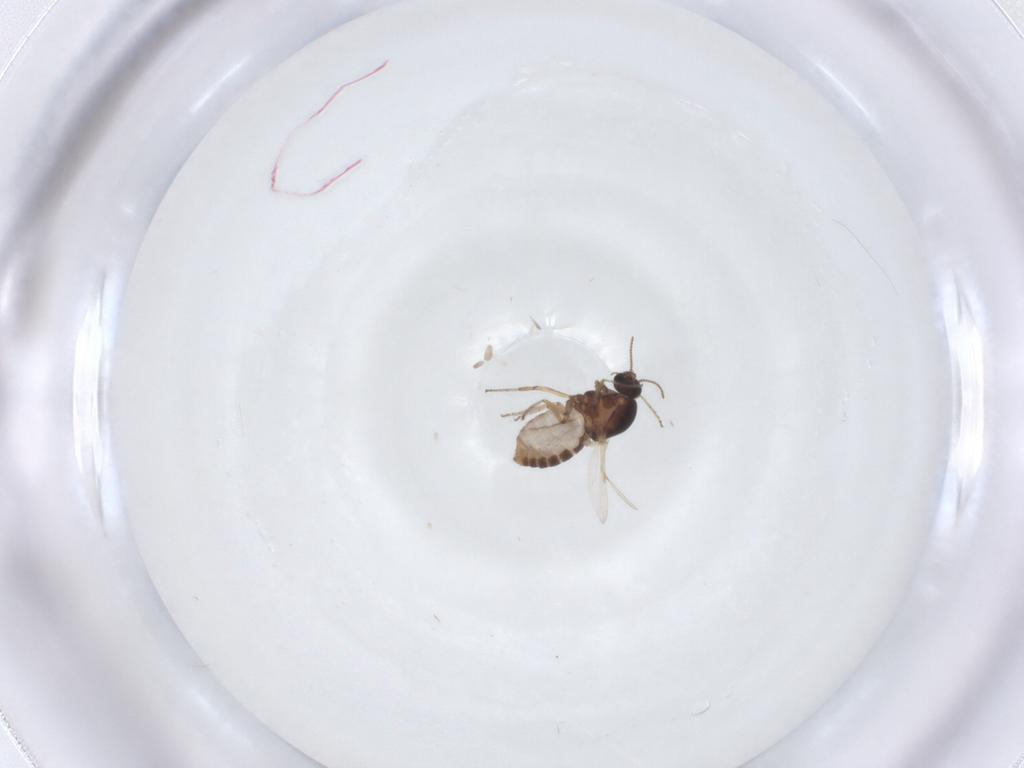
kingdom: Animalia
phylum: Arthropoda
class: Insecta
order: Diptera
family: Ceratopogonidae
